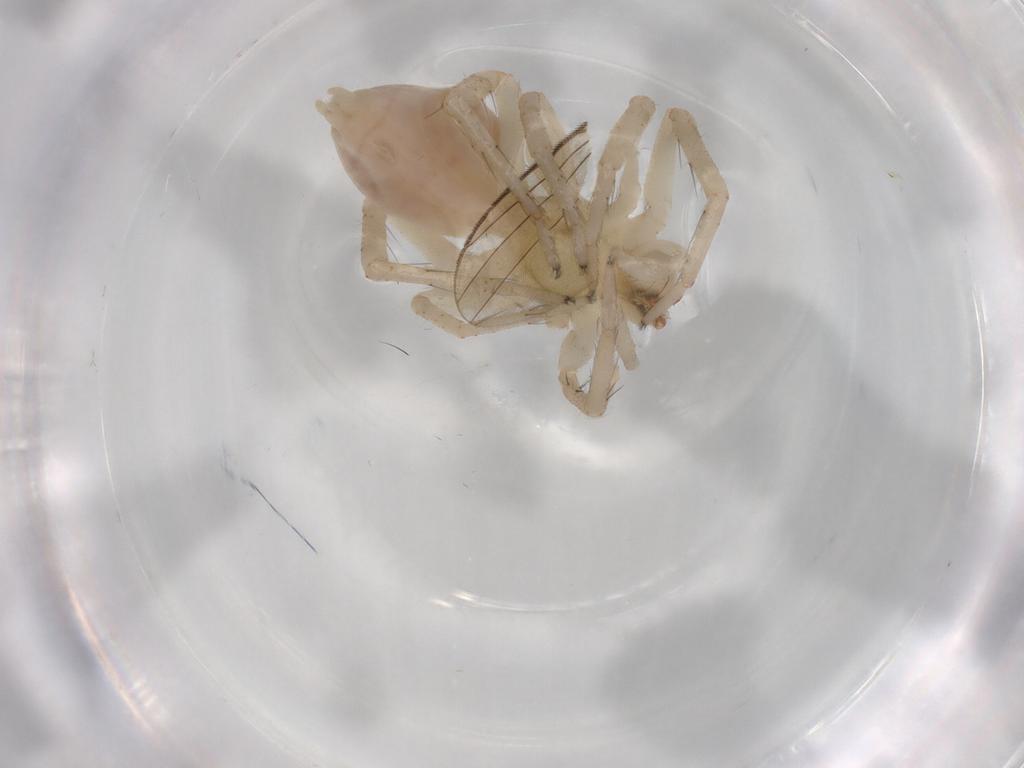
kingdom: Animalia
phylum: Arthropoda
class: Arachnida
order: Araneae
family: Anyphaenidae
